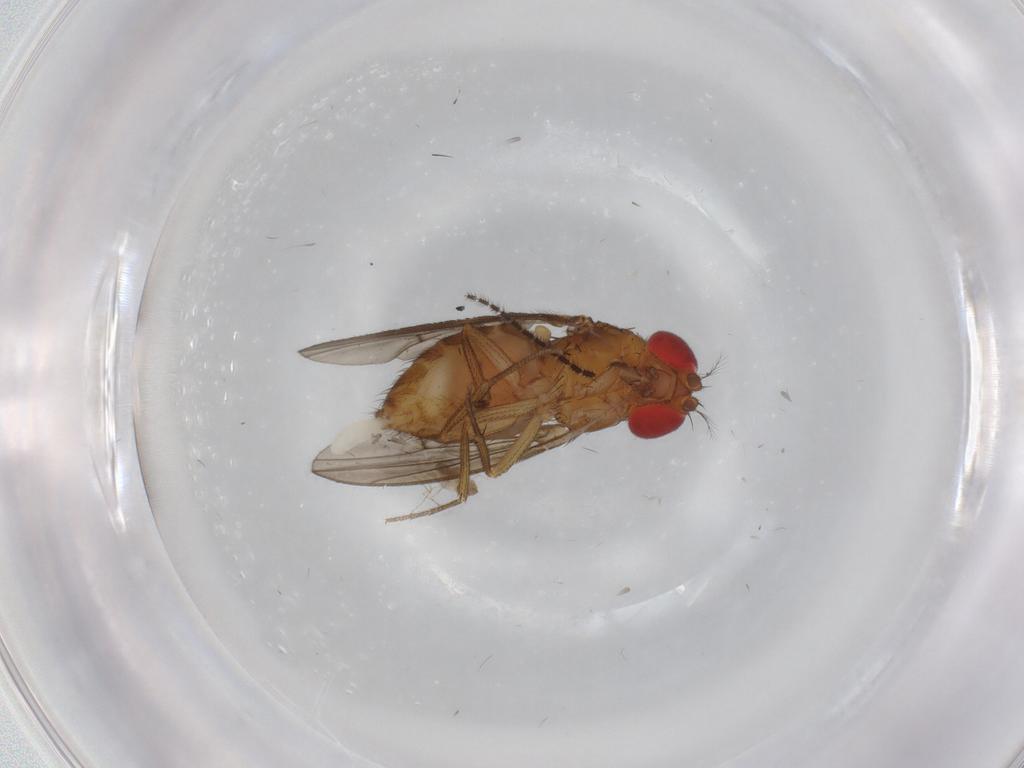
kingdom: Animalia
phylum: Arthropoda
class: Insecta
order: Diptera
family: Drosophilidae
